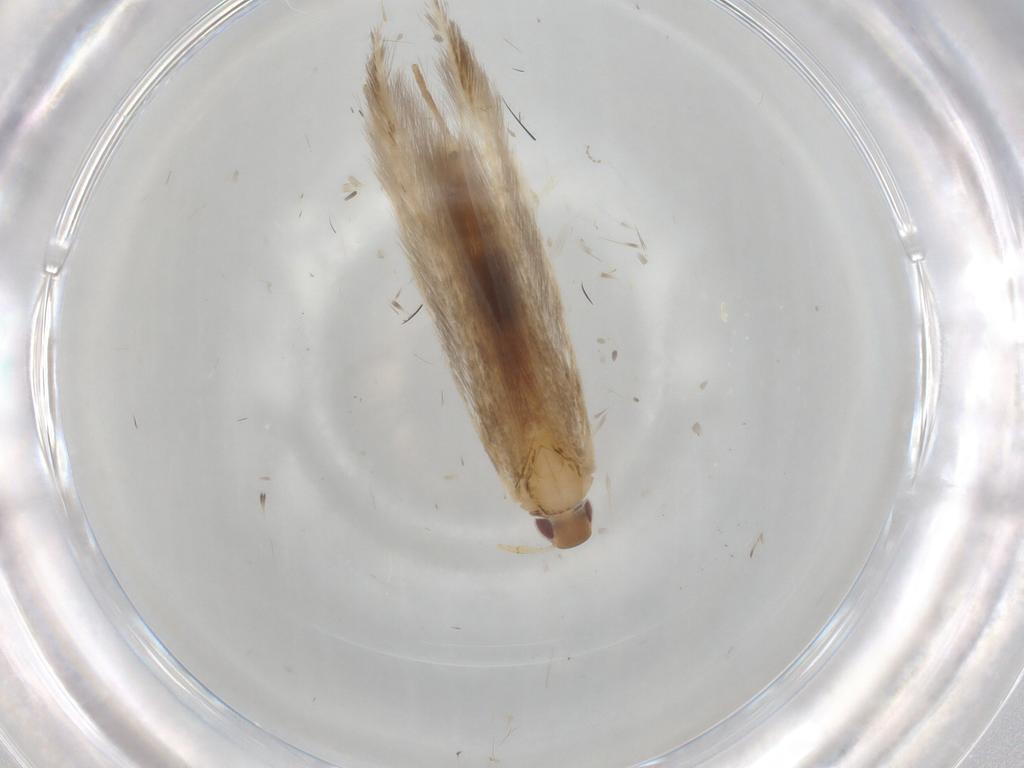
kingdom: Animalia
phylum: Arthropoda
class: Insecta
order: Lepidoptera
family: Cosmopterigidae
